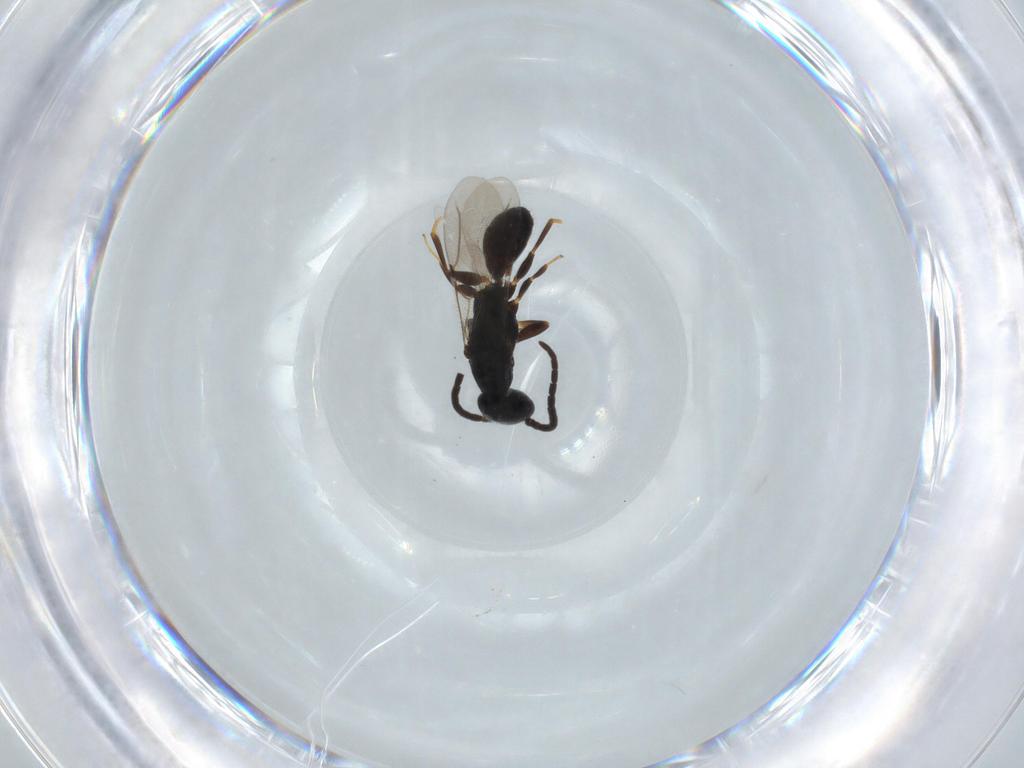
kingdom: Animalia
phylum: Arthropoda
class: Insecta
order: Hymenoptera
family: Bethylidae
